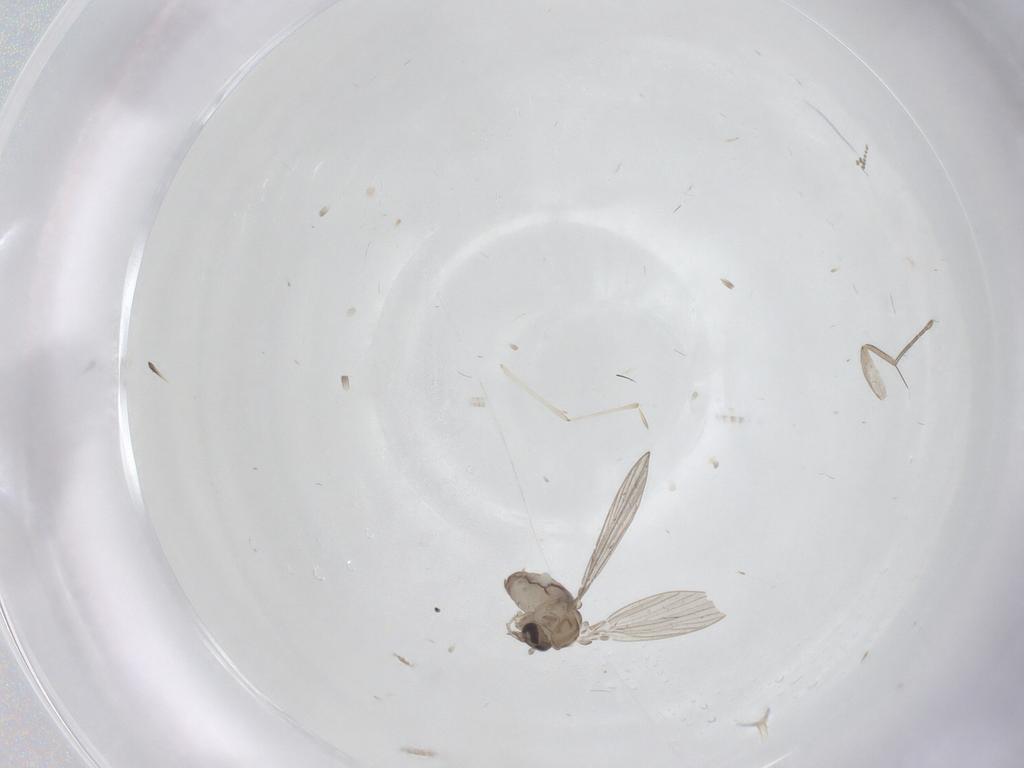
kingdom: Animalia
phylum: Arthropoda
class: Insecta
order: Diptera
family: Psychodidae
